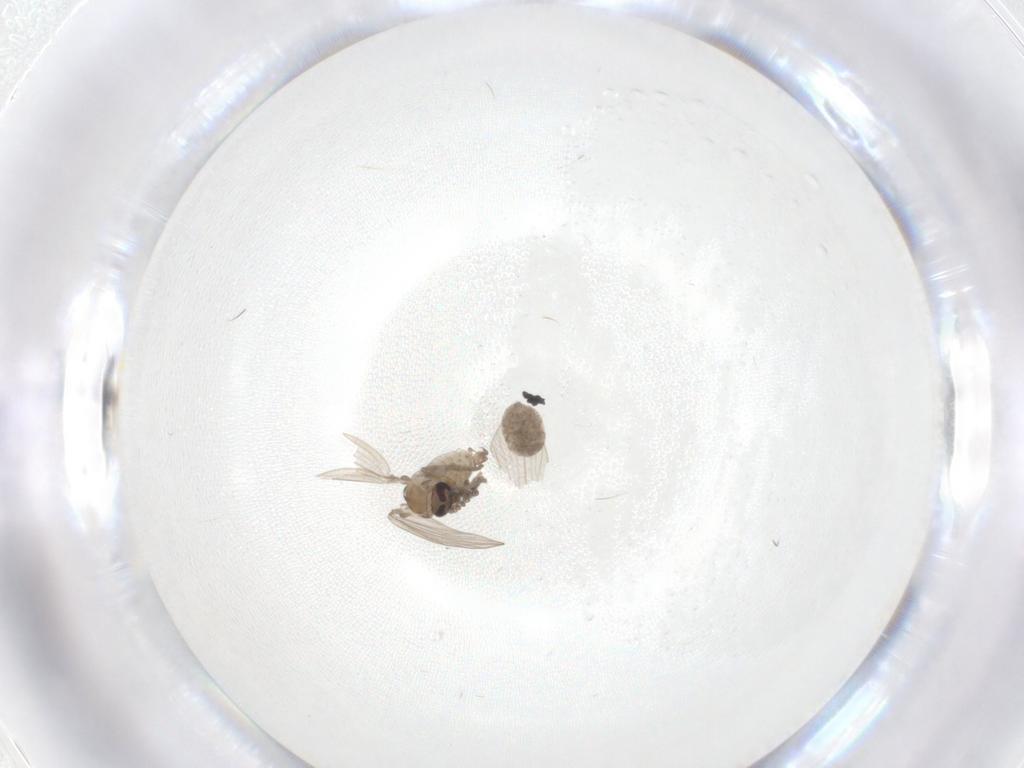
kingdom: Animalia
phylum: Arthropoda
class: Insecta
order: Diptera
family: Psychodidae
